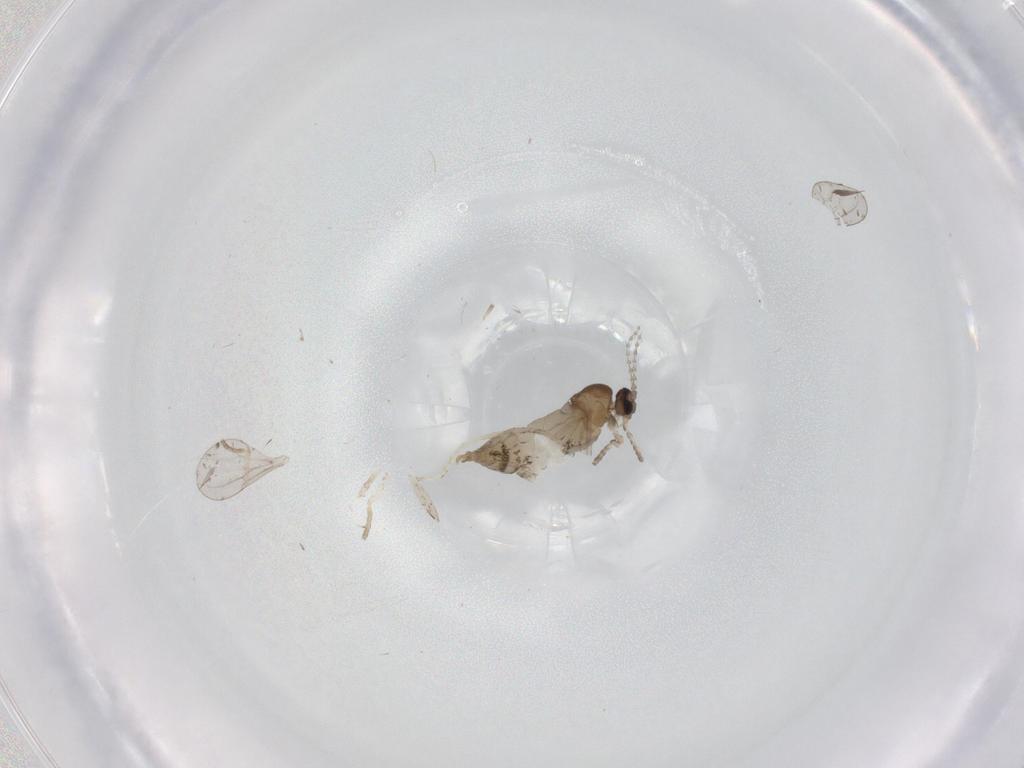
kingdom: Animalia
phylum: Arthropoda
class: Insecta
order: Diptera
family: Cecidomyiidae
